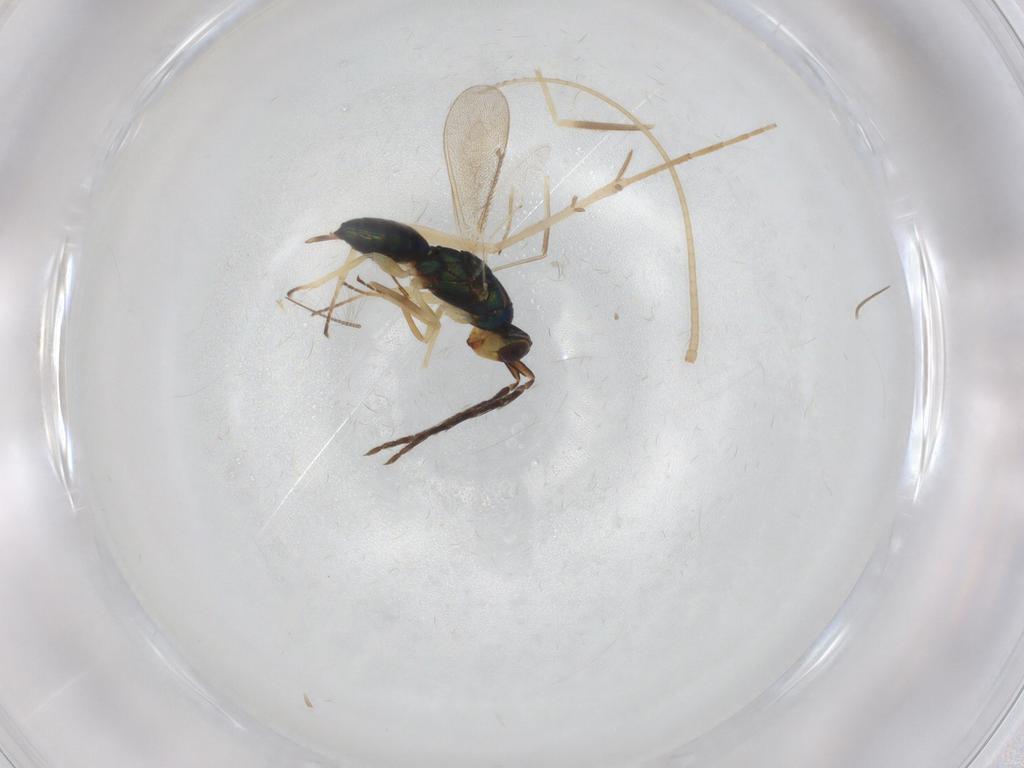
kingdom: Animalia
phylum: Arthropoda
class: Insecta
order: Hymenoptera
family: Eulophidae
